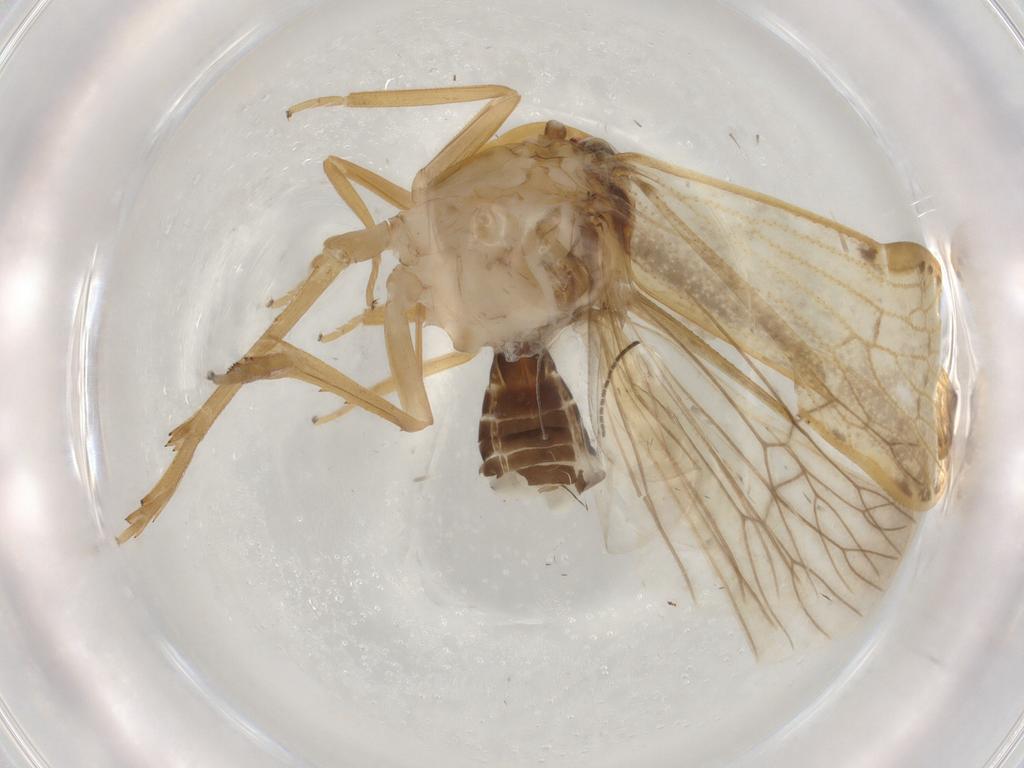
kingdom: Animalia
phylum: Arthropoda
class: Insecta
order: Hemiptera
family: Cicadellidae
